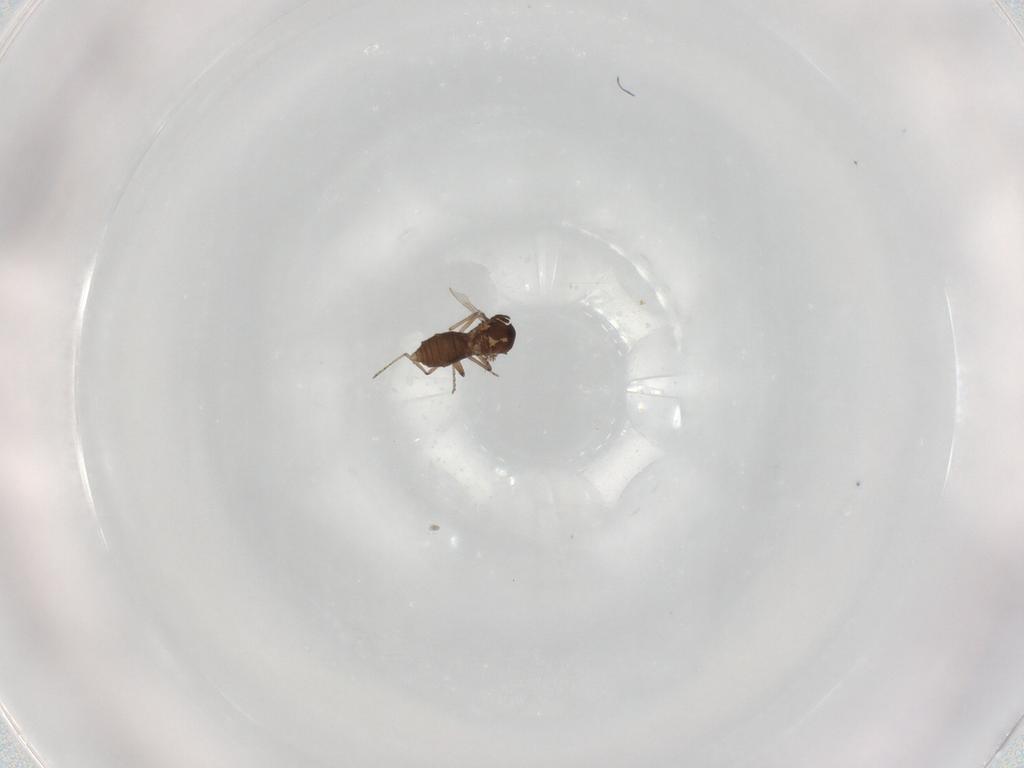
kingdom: Animalia
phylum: Arthropoda
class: Insecta
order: Diptera
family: Ceratopogonidae
